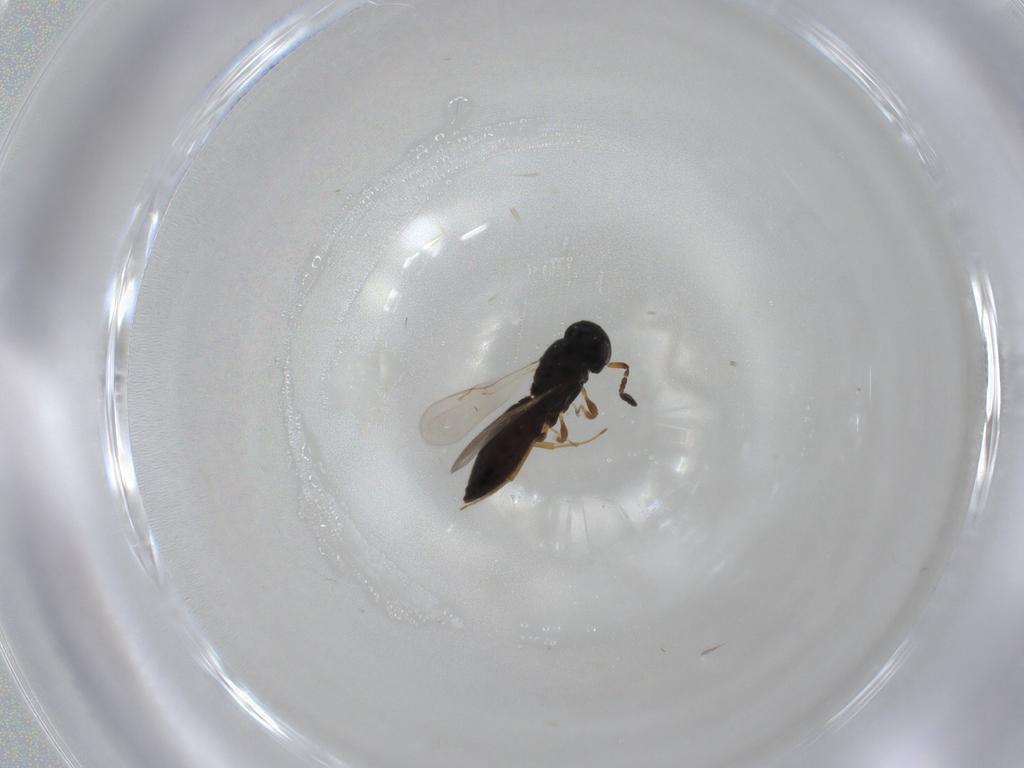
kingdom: Animalia
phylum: Arthropoda
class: Insecta
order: Hymenoptera
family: Scelionidae
